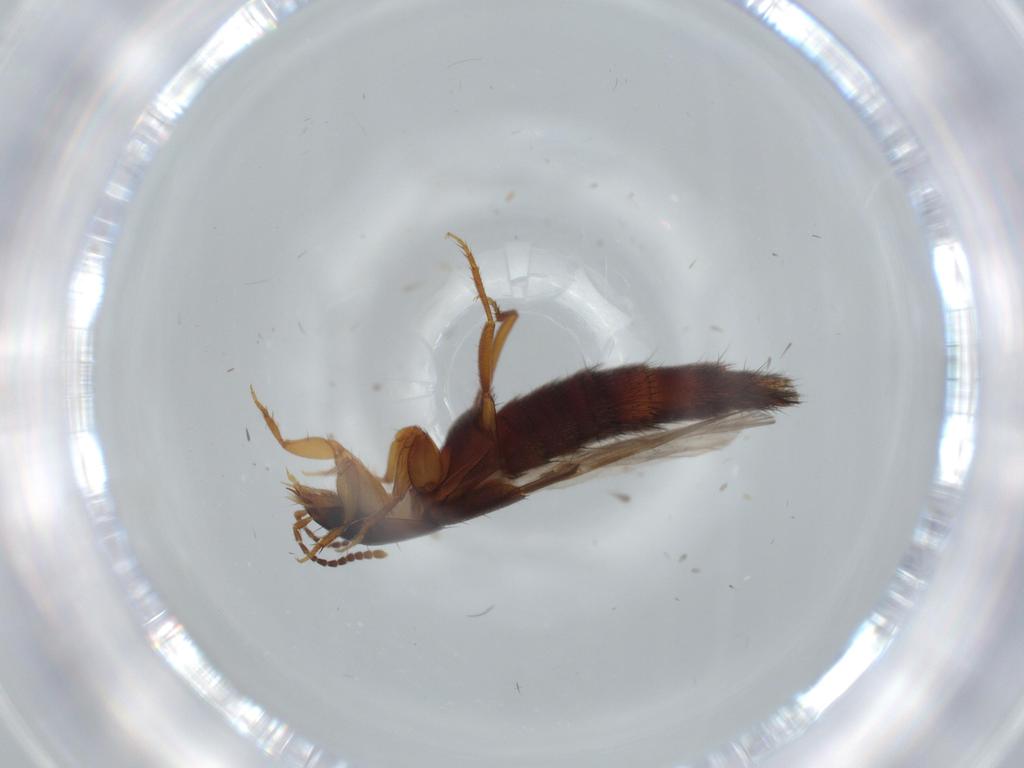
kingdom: Animalia
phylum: Arthropoda
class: Insecta
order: Coleoptera
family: Staphylinidae
